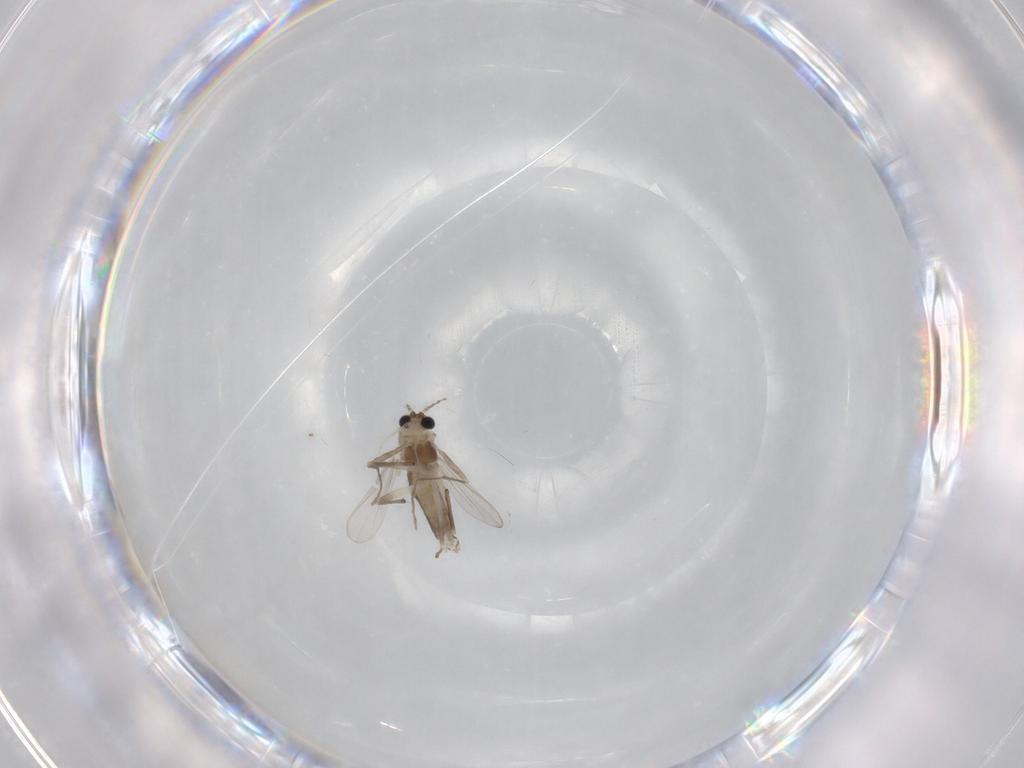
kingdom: Animalia
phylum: Arthropoda
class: Insecta
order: Diptera
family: Chironomidae
